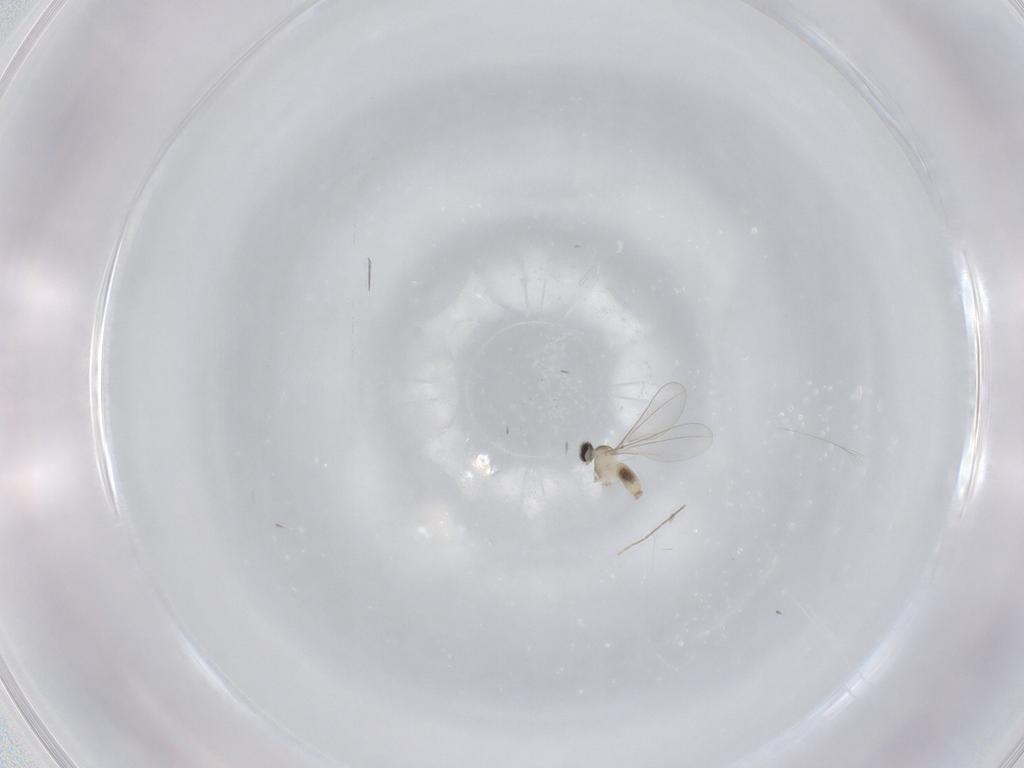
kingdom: Animalia
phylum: Arthropoda
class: Insecta
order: Diptera
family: Cecidomyiidae
